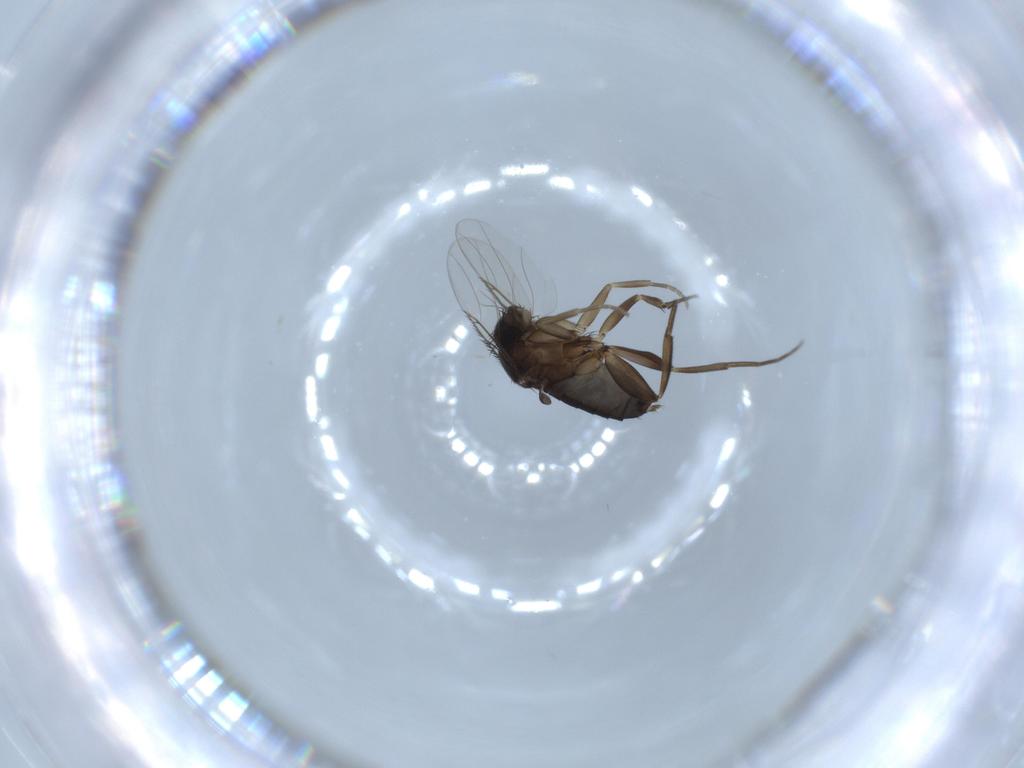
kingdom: Animalia
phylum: Arthropoda
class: Insecta
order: Diptera
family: Phoridae
